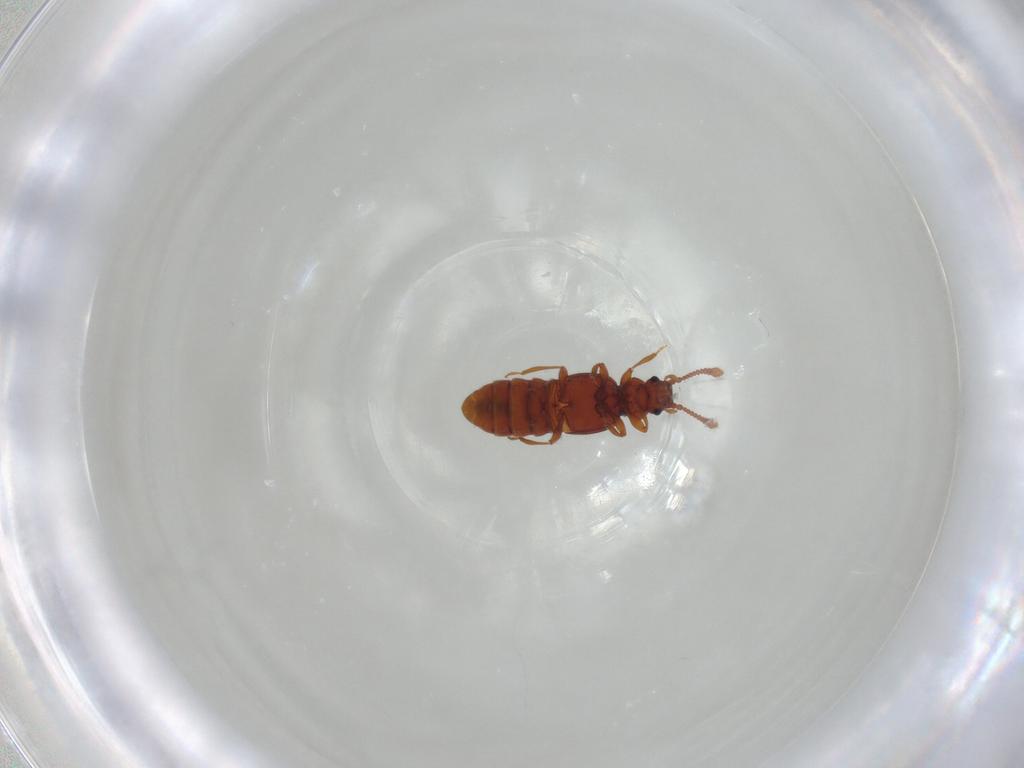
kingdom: Animalia
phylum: Arthropoda
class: Insecta
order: Coleoptera
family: Staphylinidae
